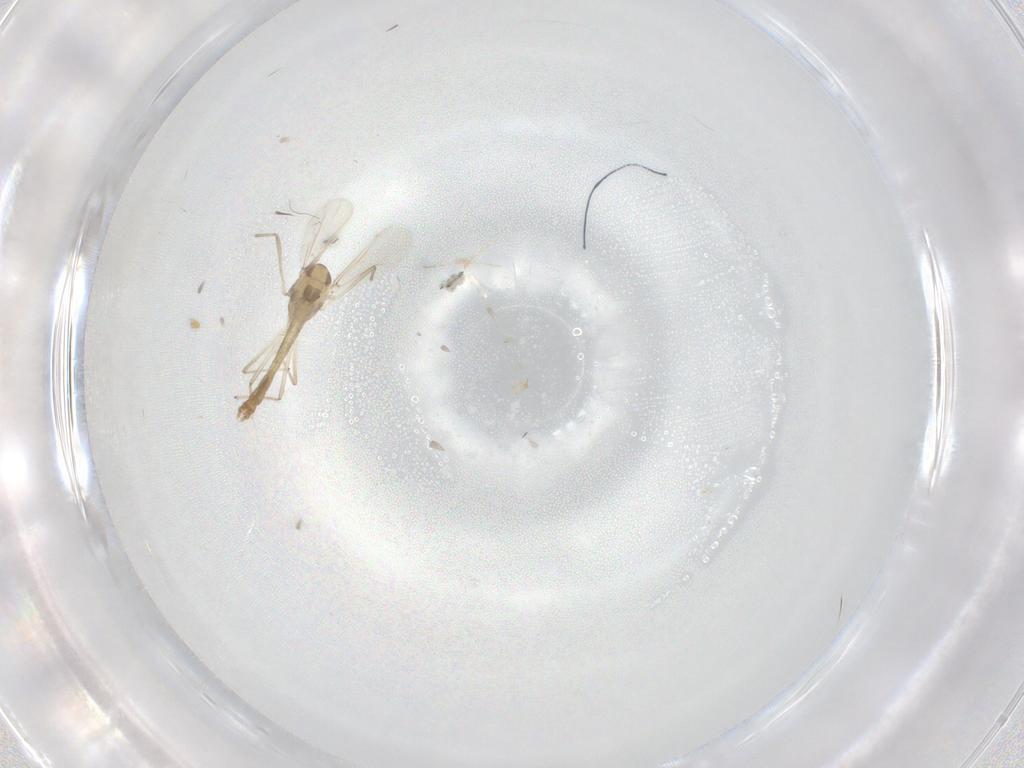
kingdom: Animalia
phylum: Arthropoda
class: Insecta
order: Diptera
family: Chironomidae
